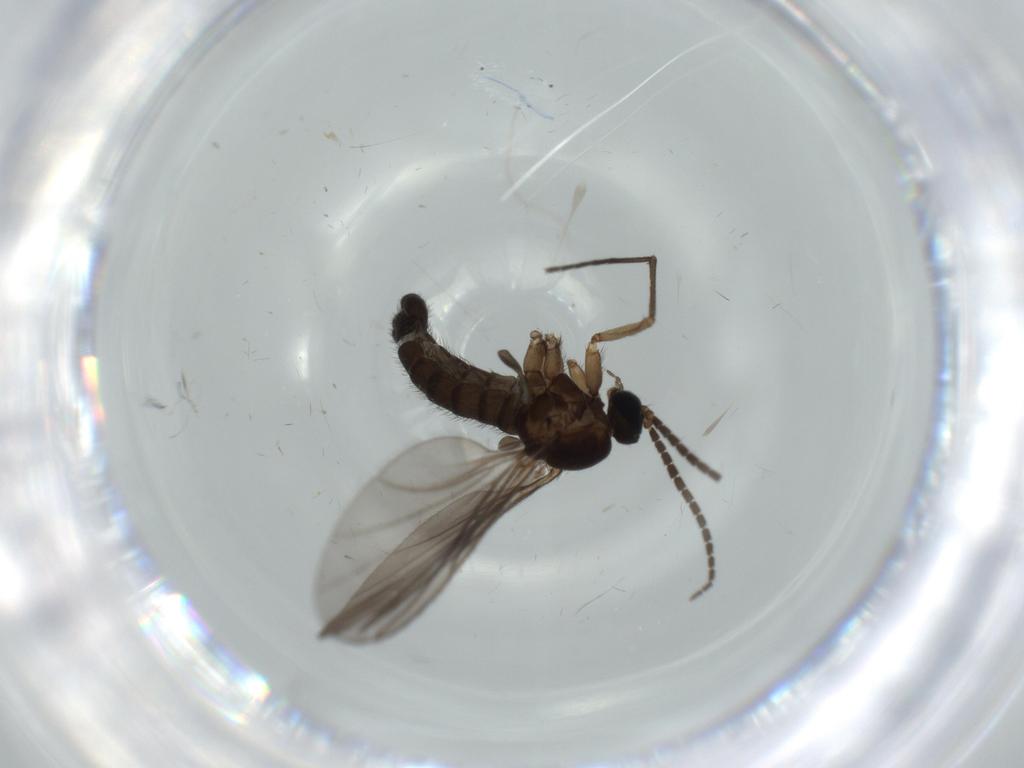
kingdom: Animalia
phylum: Arthropoda
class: Insecta
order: Diptera
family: Sciaridae
